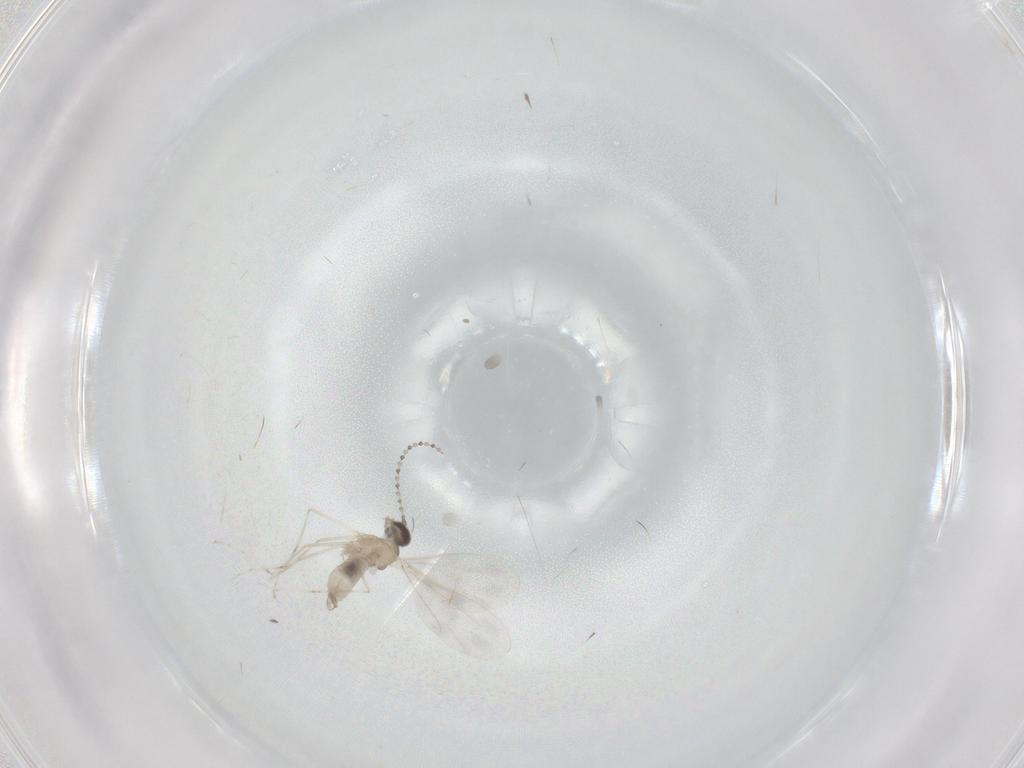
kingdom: Animalia
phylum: Arthropoda
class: Insecta
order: Diptera
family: Cecidomyiidae
